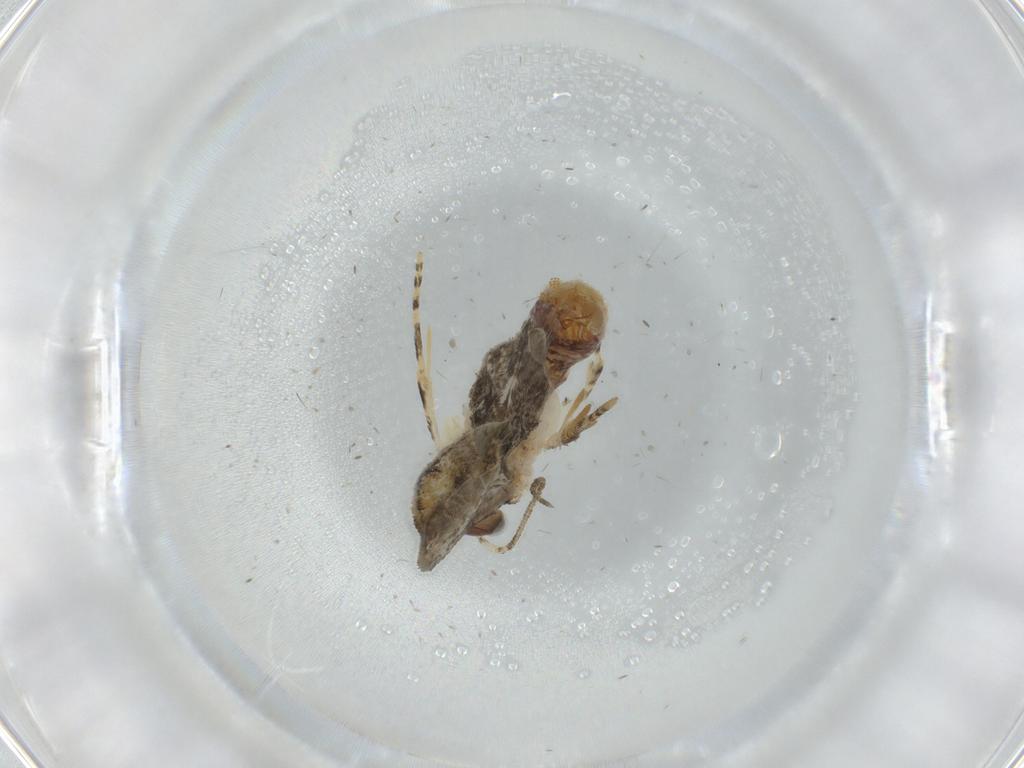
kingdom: Animalia
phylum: Arthropoda
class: Insecta
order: Lepidoptera
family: Tineidae
